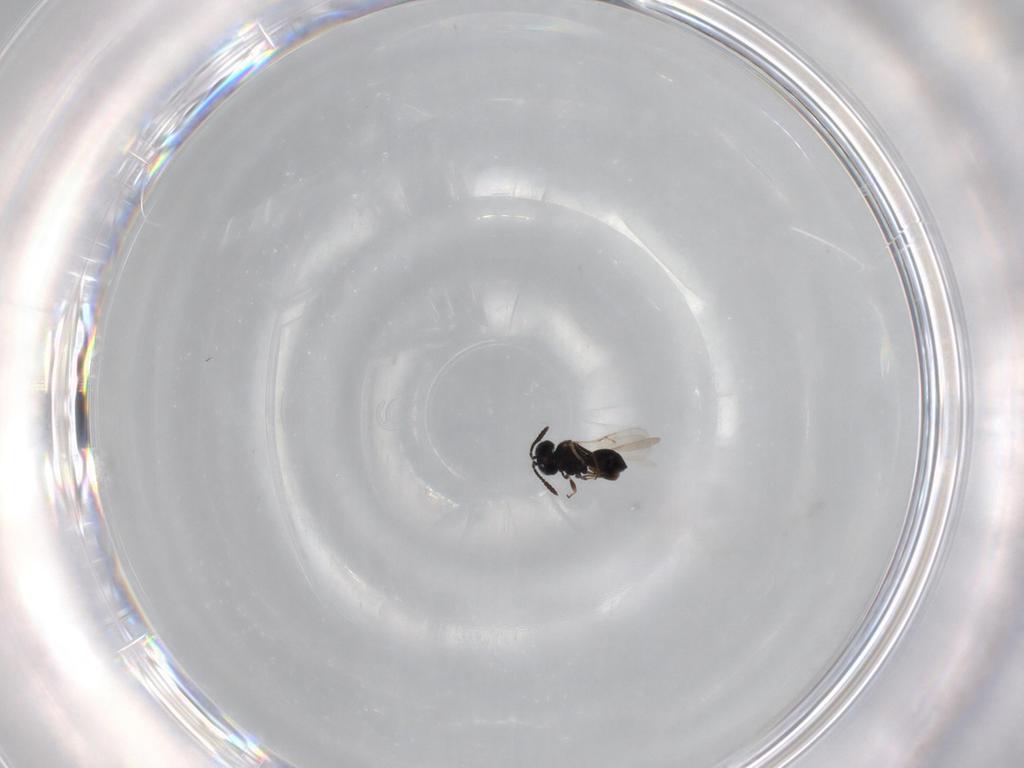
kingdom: Animalia
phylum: Arthropoda
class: Insecta
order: Hymenoptera
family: Scelionidae
